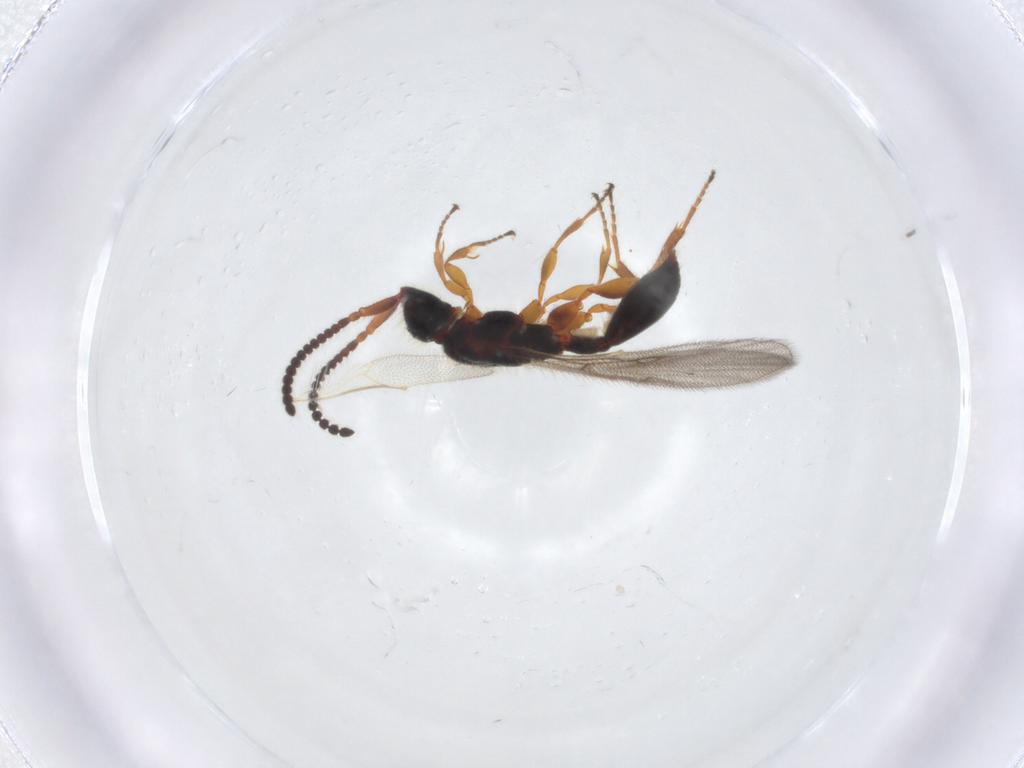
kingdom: Animalia
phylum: Arthropoda
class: Insecta
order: Hymenoptera
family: Diapriidae
